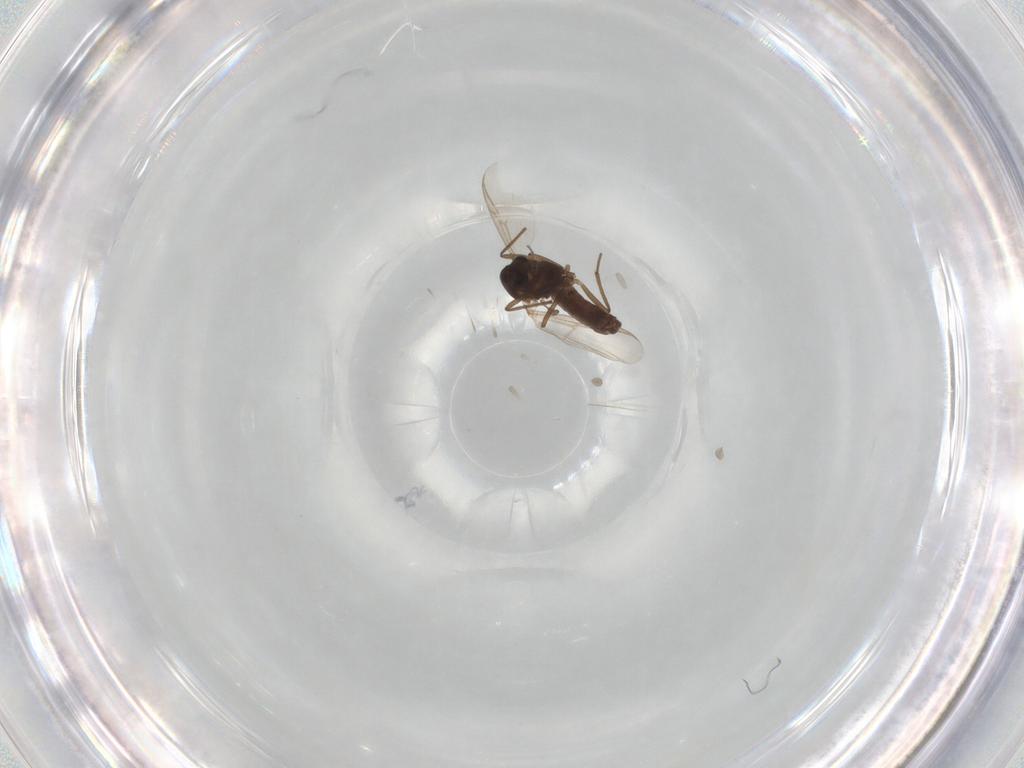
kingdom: Animalia
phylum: Arthropoda
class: Insecta
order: Diptera
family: Chironomidae
